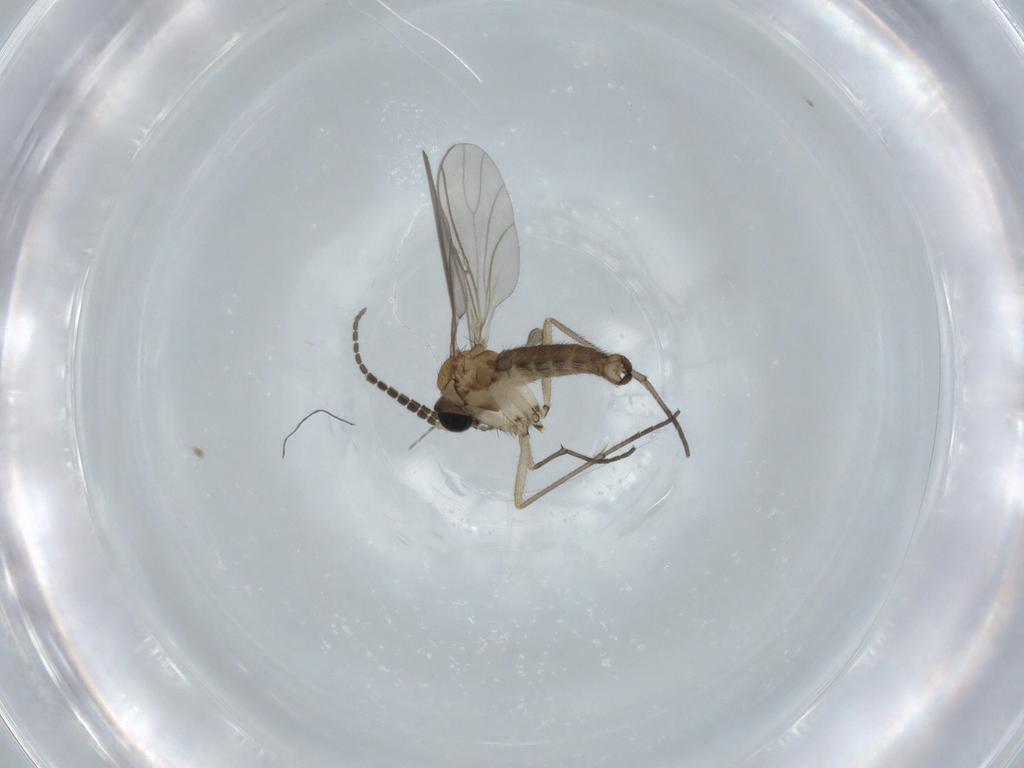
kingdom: Animalia
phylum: Arthropoda
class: Insecta
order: Diptera
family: Sciaridae
